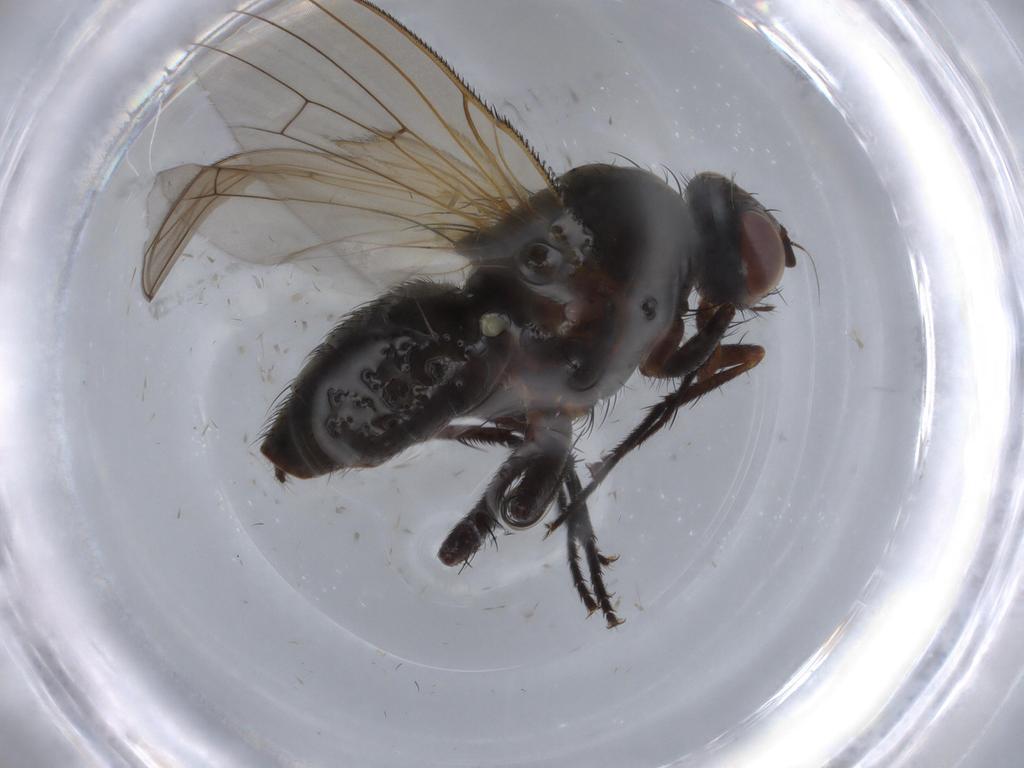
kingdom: Animalia
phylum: Arthropoda
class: Insecta
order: Diptera
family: Anthomyiidae
